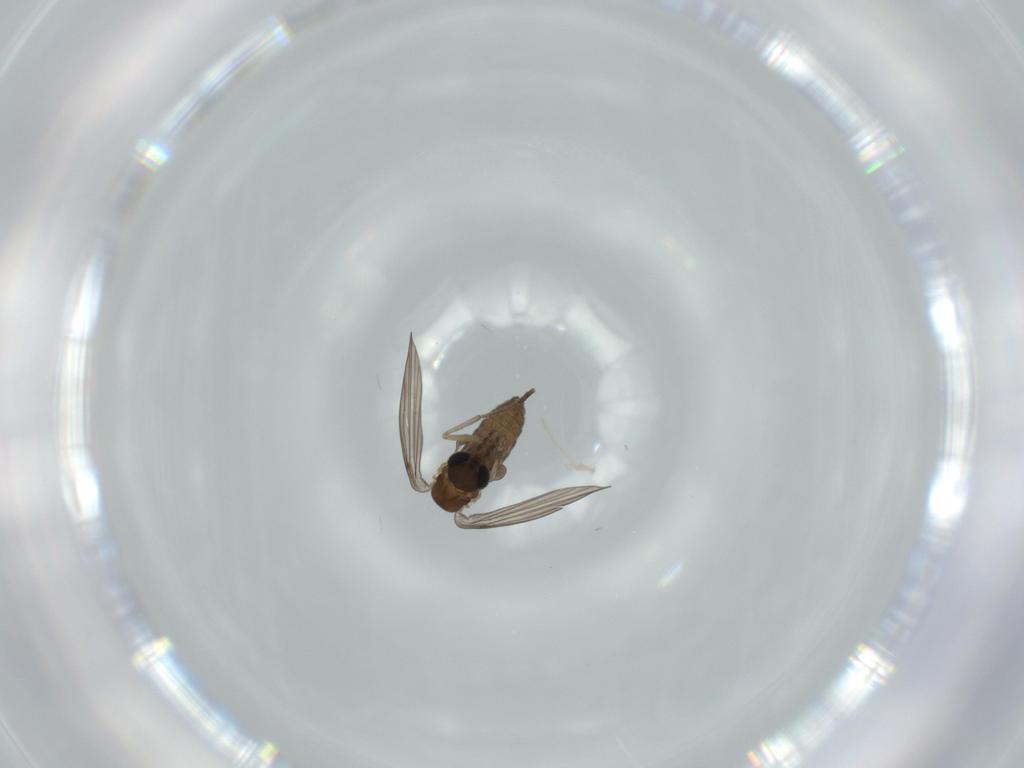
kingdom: Animalia
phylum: Arthropoda
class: Insecta
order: Diptera
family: Psychodidae
